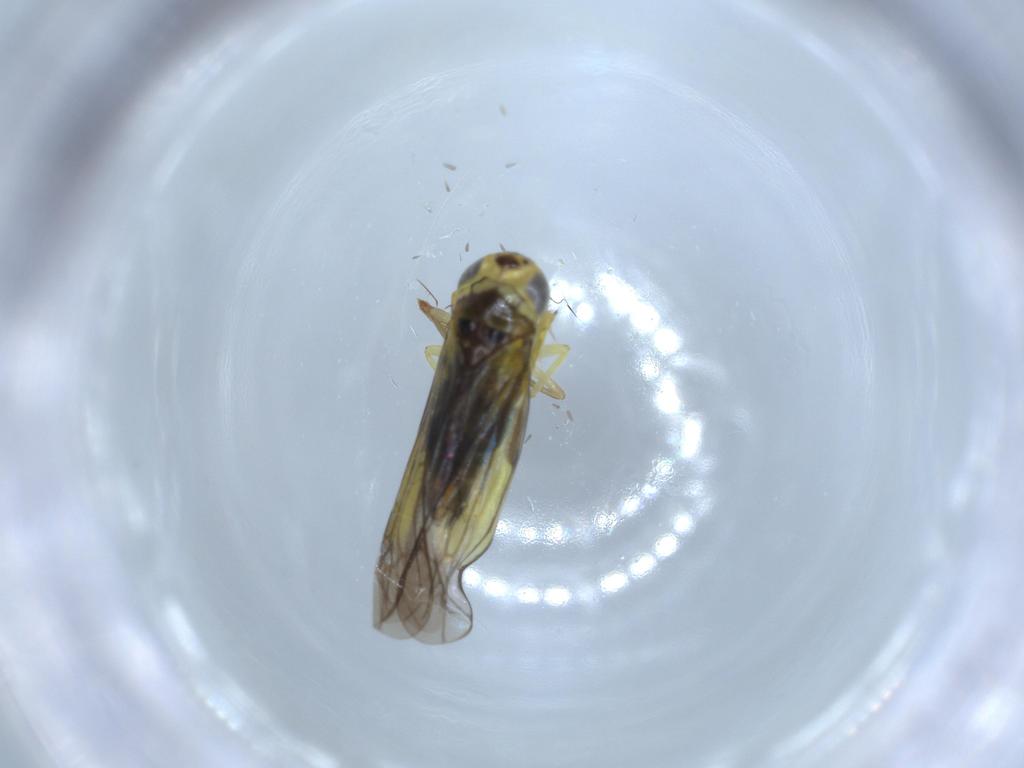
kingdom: Animalia
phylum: Arthropoda
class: Insecta
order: Hemiptera
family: Cicadellidae
